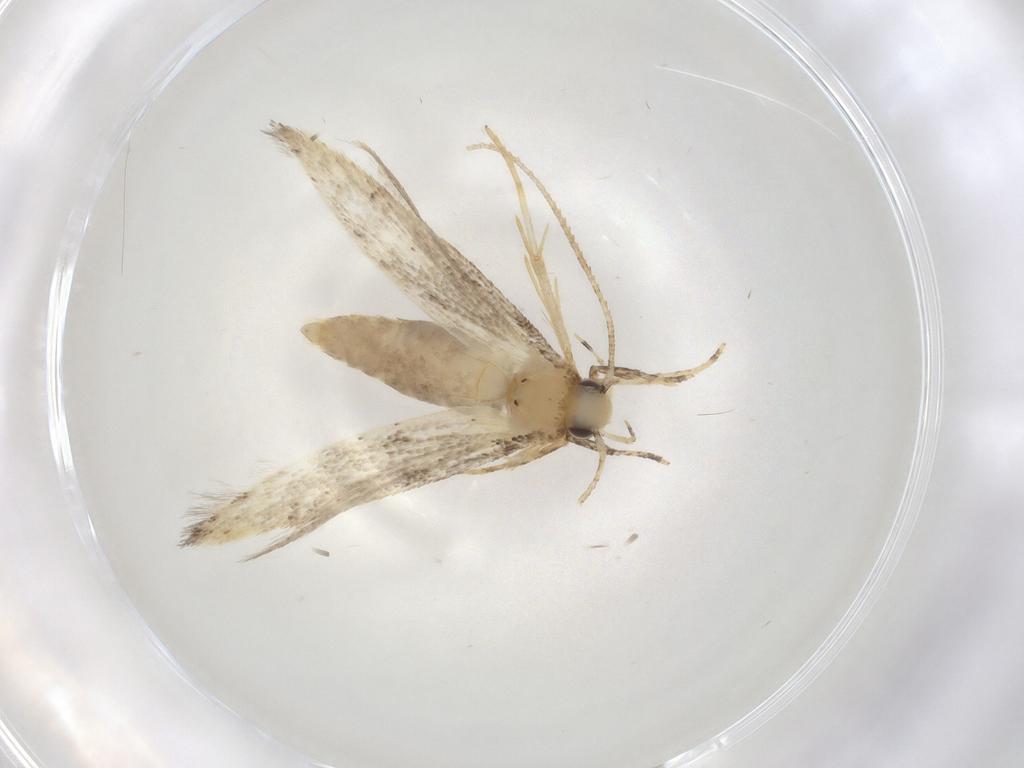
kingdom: Animalia
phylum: Arthropoda
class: Insecta
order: Lepidoptera
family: Autostichidae
